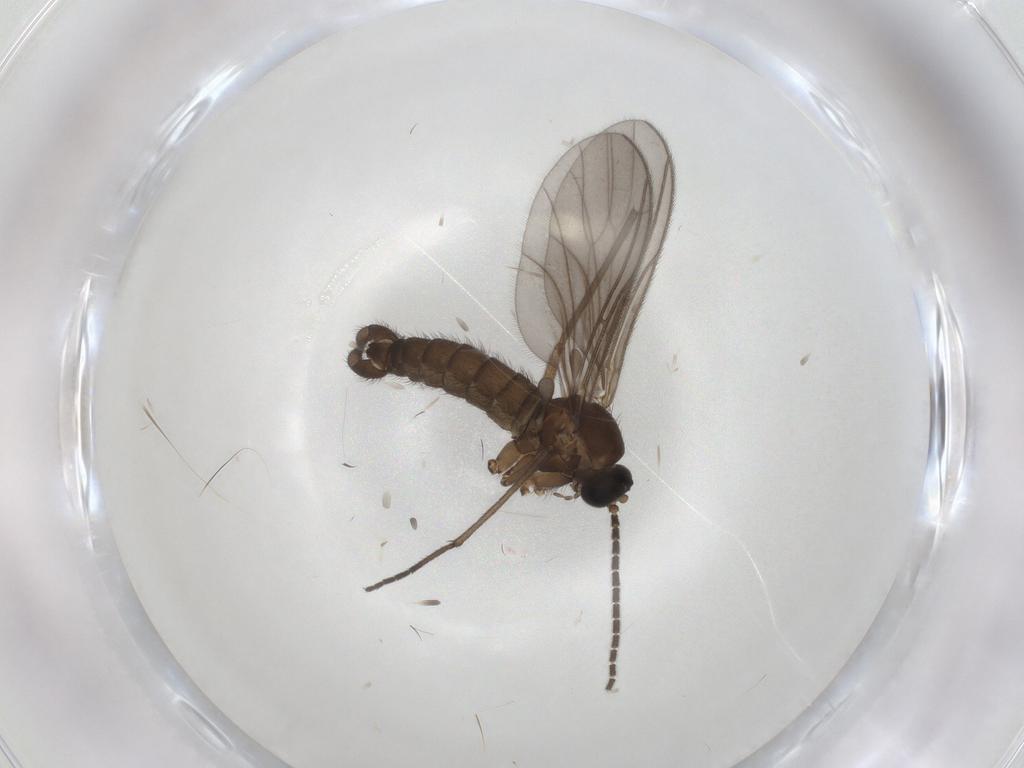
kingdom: Animalia
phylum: Arthropoda
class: Insecta
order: Diptera
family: Sciaridae
